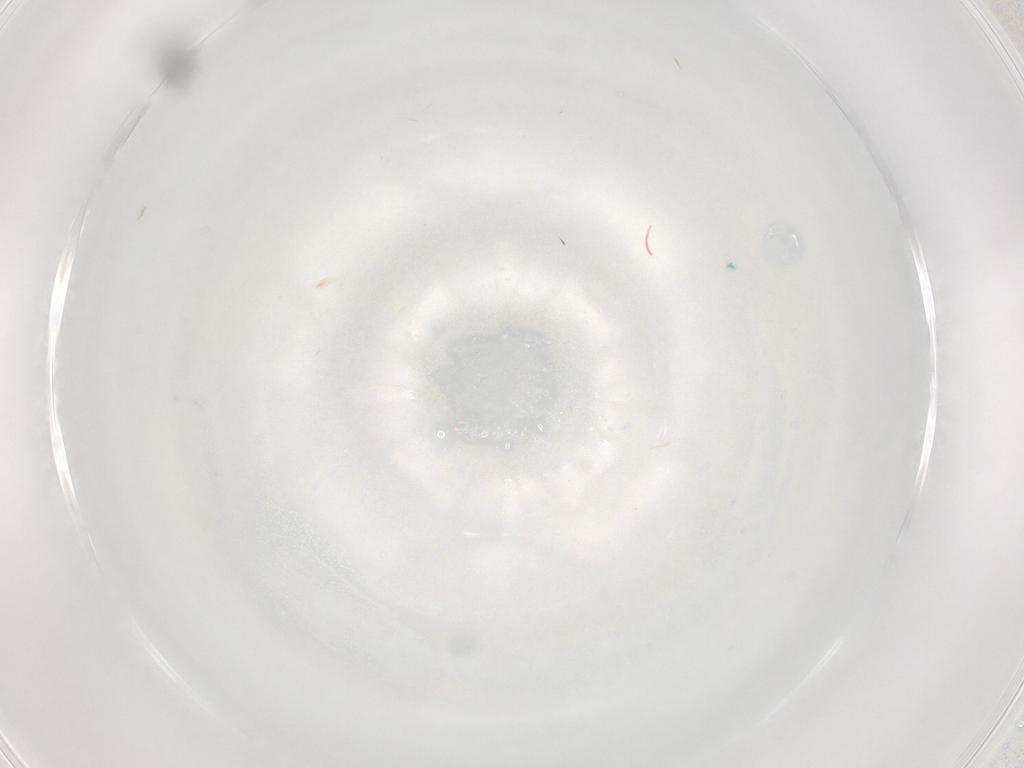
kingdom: Animalia
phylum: Arthropoda
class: Insecta
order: Diptera
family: Cecidomyiidae
